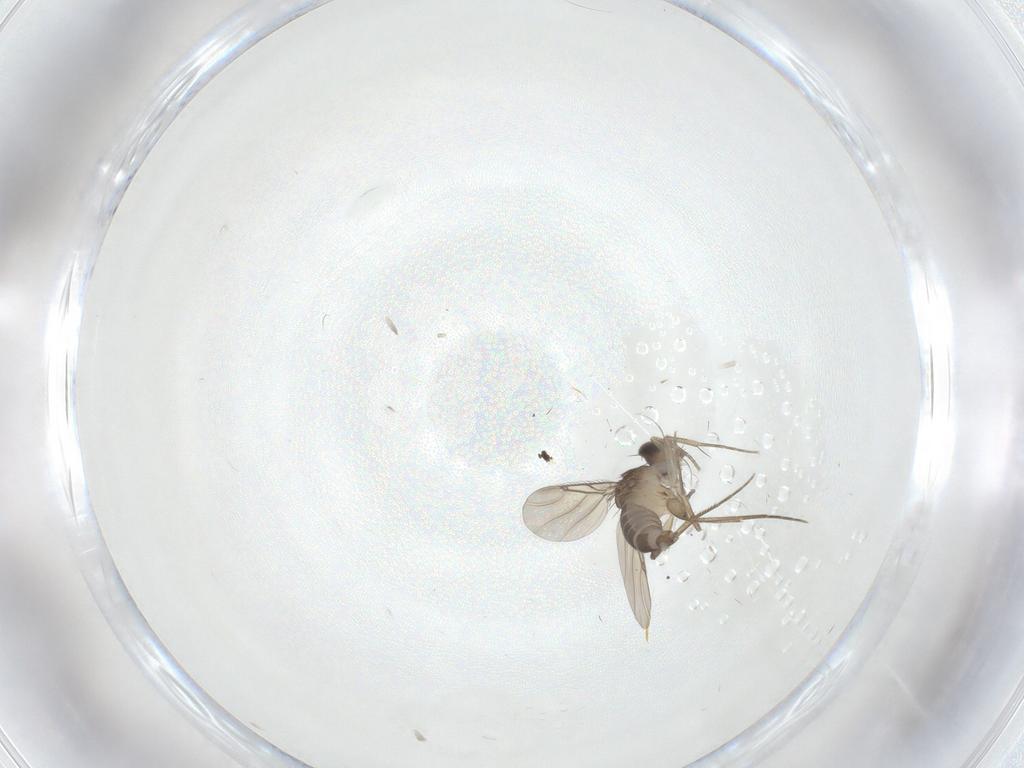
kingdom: Animalia
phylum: Arthropoda
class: Insecta
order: Diptera
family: Phoridae
